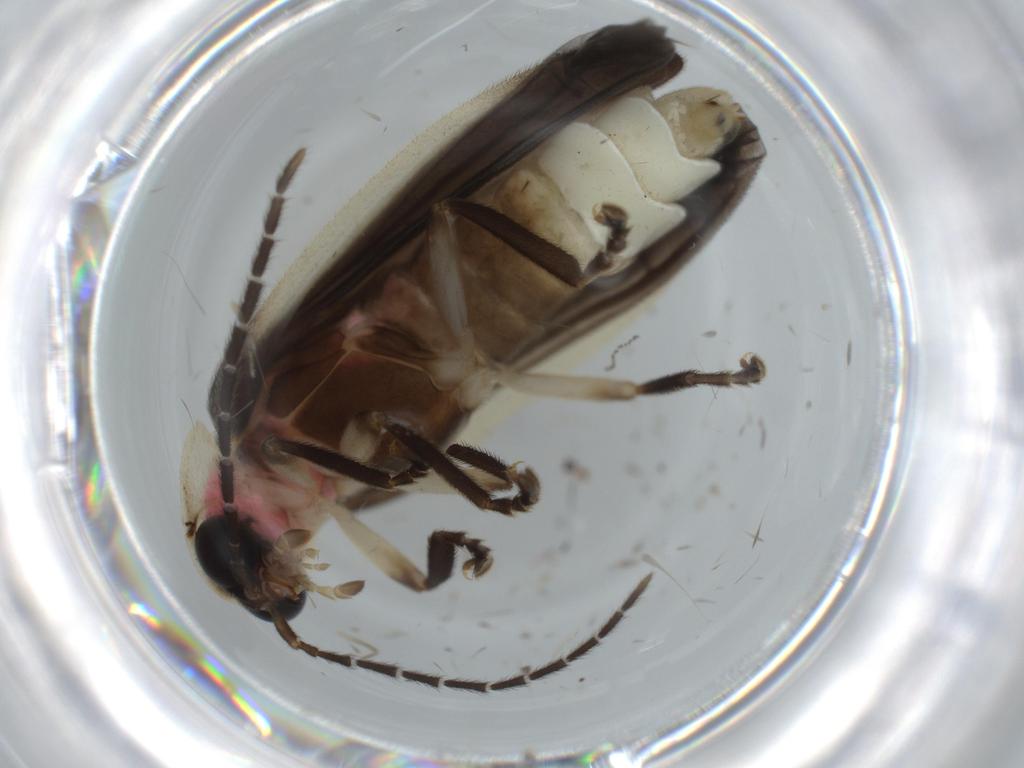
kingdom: Animalia
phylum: Arthropoda
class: Insecta
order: Coleoptera
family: Lampyridae
